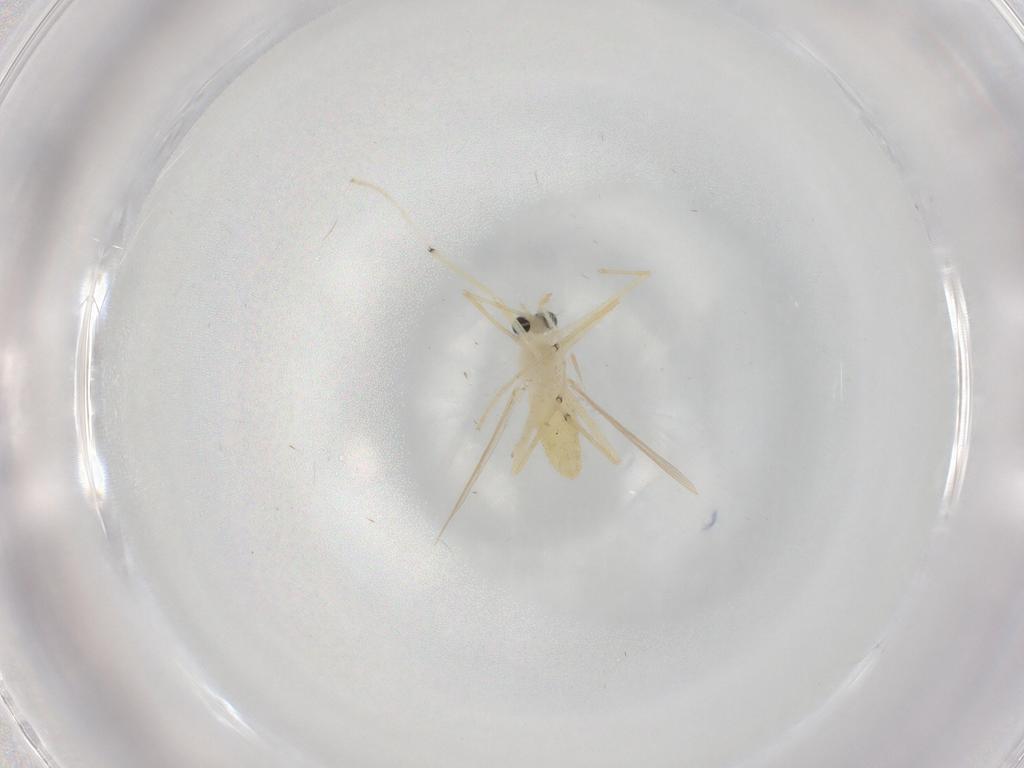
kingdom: Animalia
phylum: Arthropoda
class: Insecta
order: Diptera
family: Chironomidae
